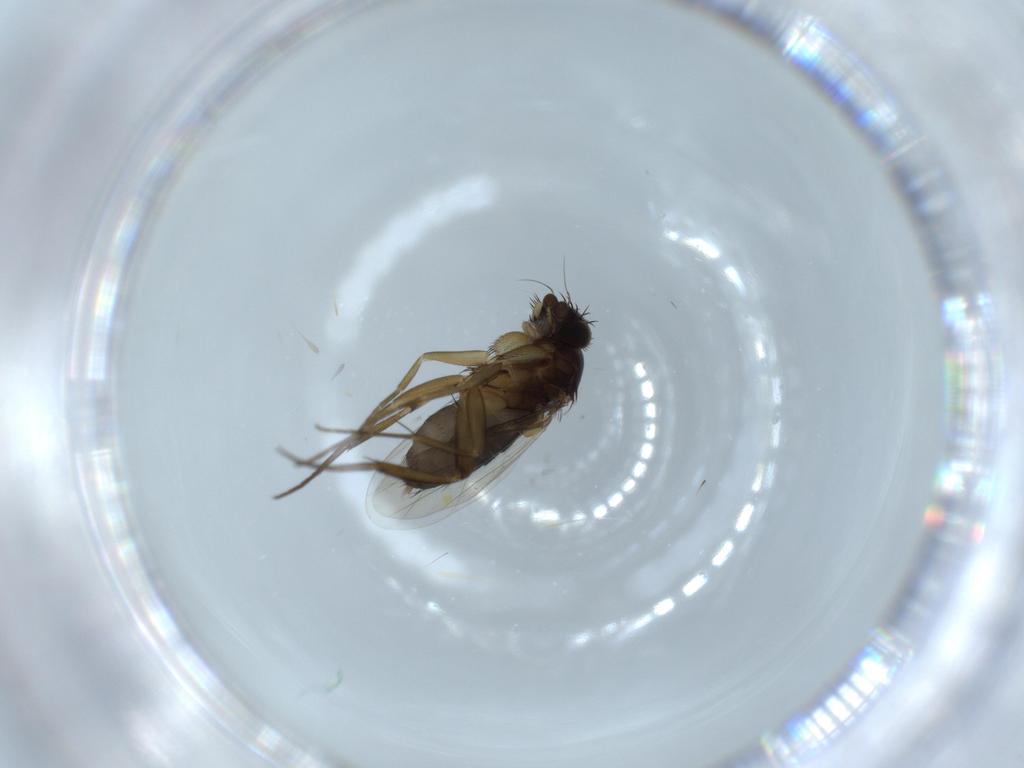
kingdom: Animalia
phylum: Arthropoda
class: Insecta
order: Diptera
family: Phoridae
